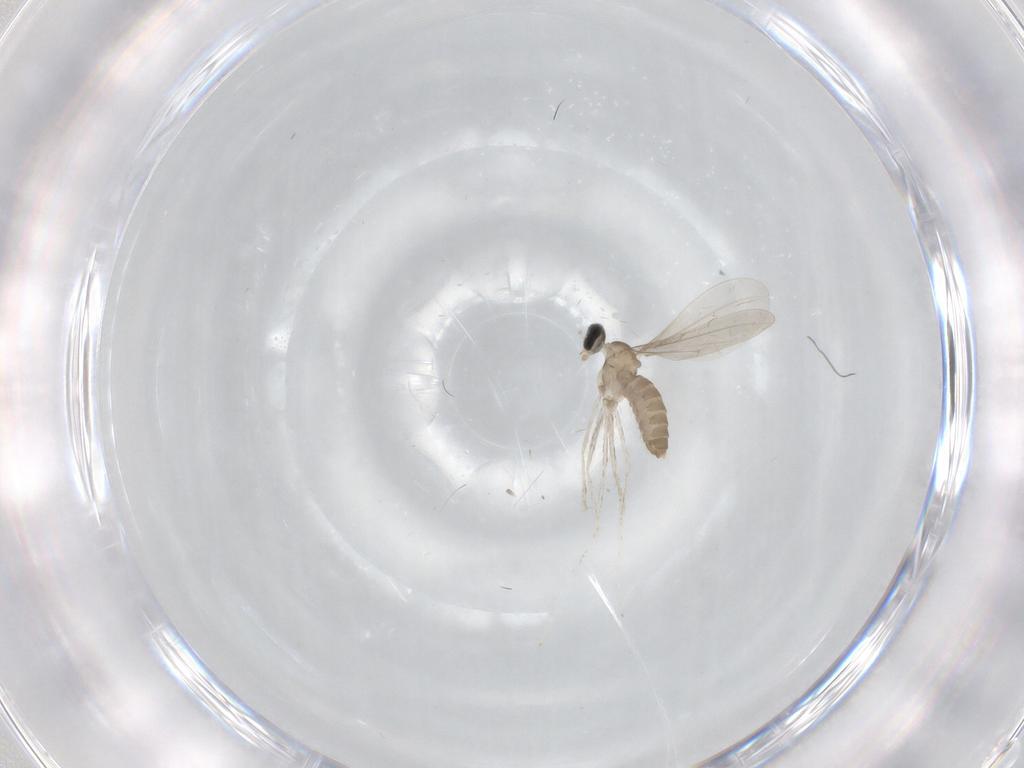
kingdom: Animalia
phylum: Arthropoda
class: Insecta
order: Diptera
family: Cecidomyiidae
